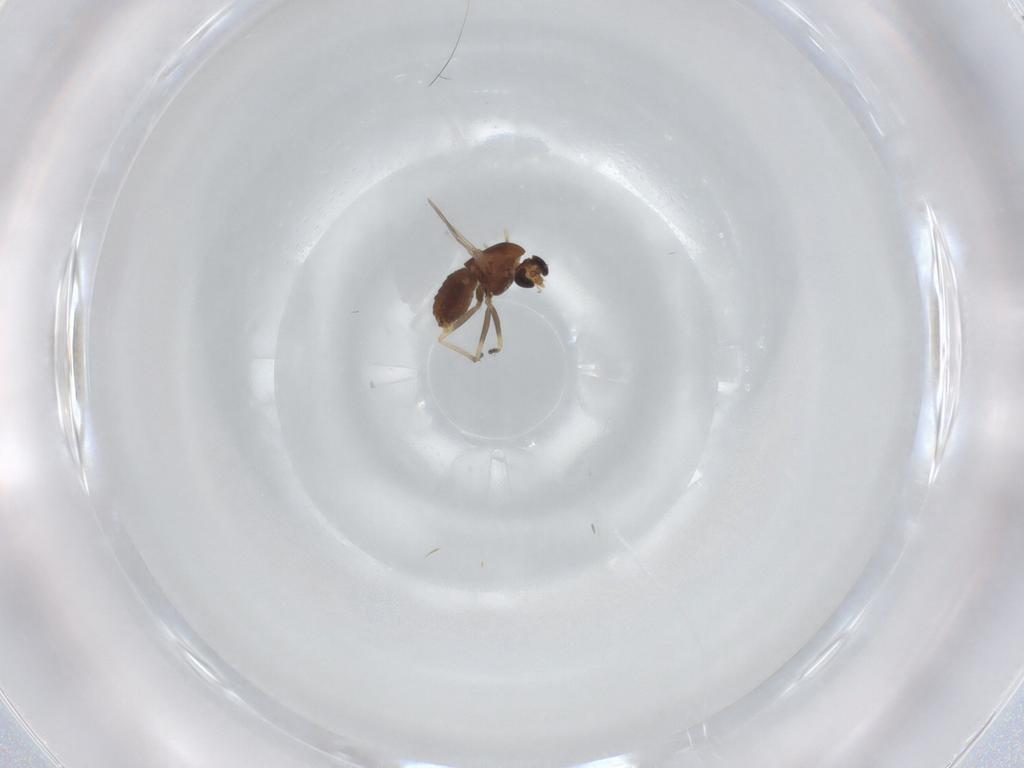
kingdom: Animalia
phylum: Arthropoda
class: Insecta
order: Diptera
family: Chironomidae
